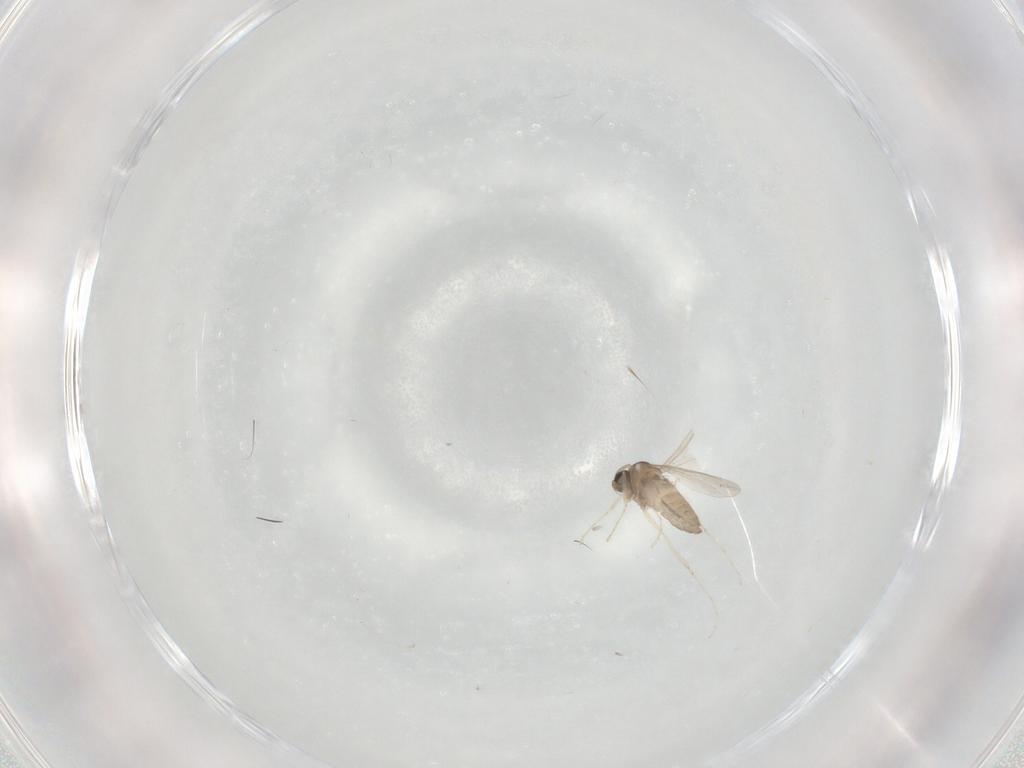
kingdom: Animalia
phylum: Arthropoda
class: Insecta
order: Diptera
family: Cecidomyiidae
